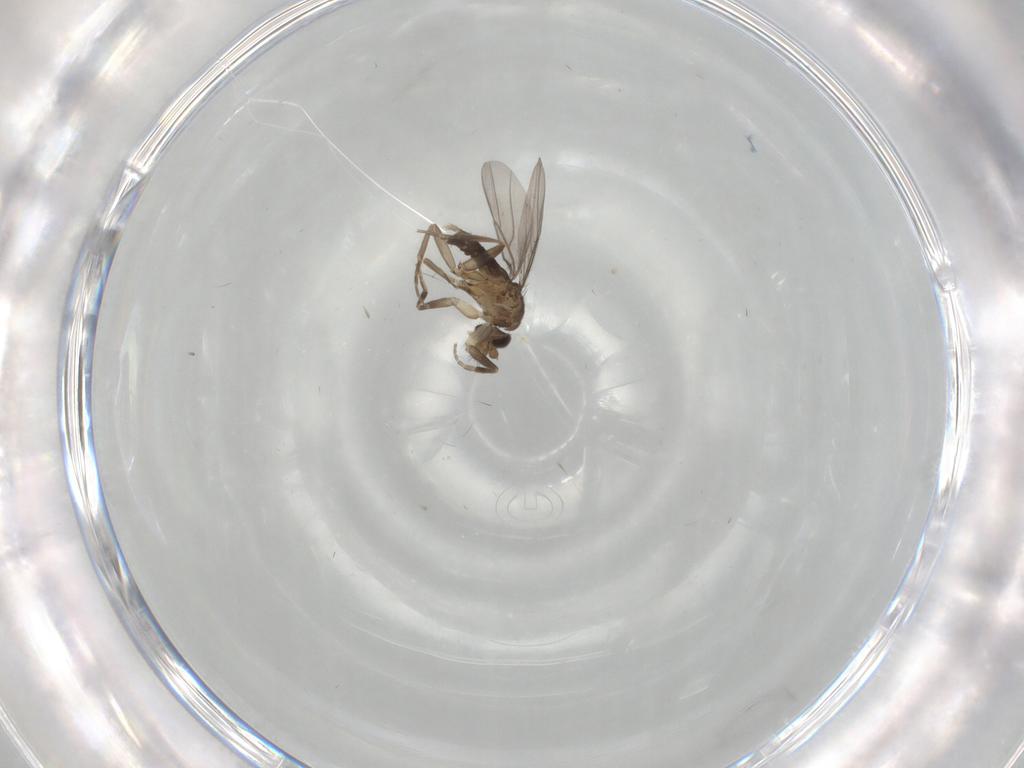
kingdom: Animalia
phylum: Arthropoda
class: Insecta
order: Diptera
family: Phoridae
